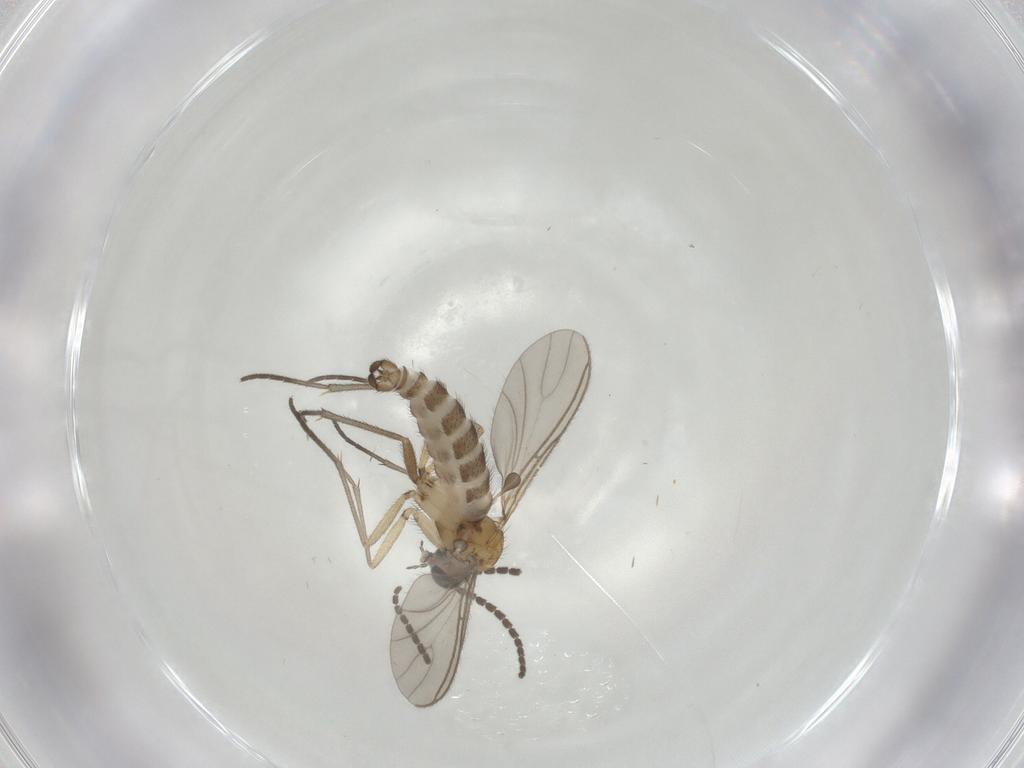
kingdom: Animalia
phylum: Arthropoda
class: Insecta
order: Diptera
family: Sciaridae
